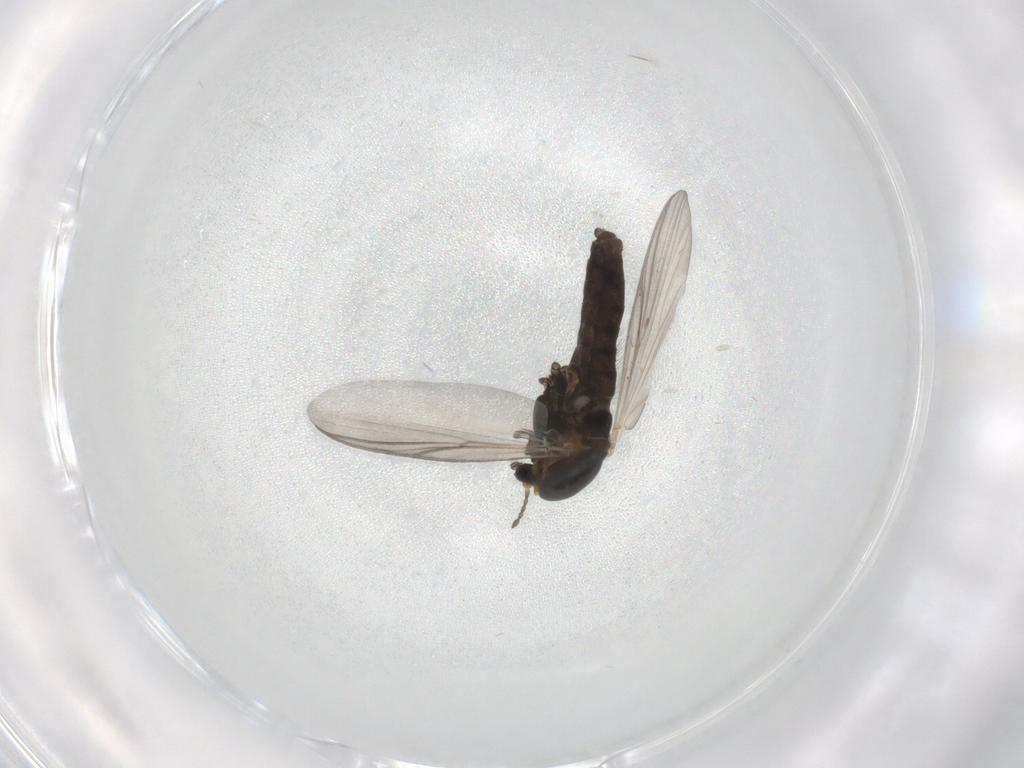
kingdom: Animalia
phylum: Arthropoda
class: Insecta
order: Diptera
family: Chironomidae
